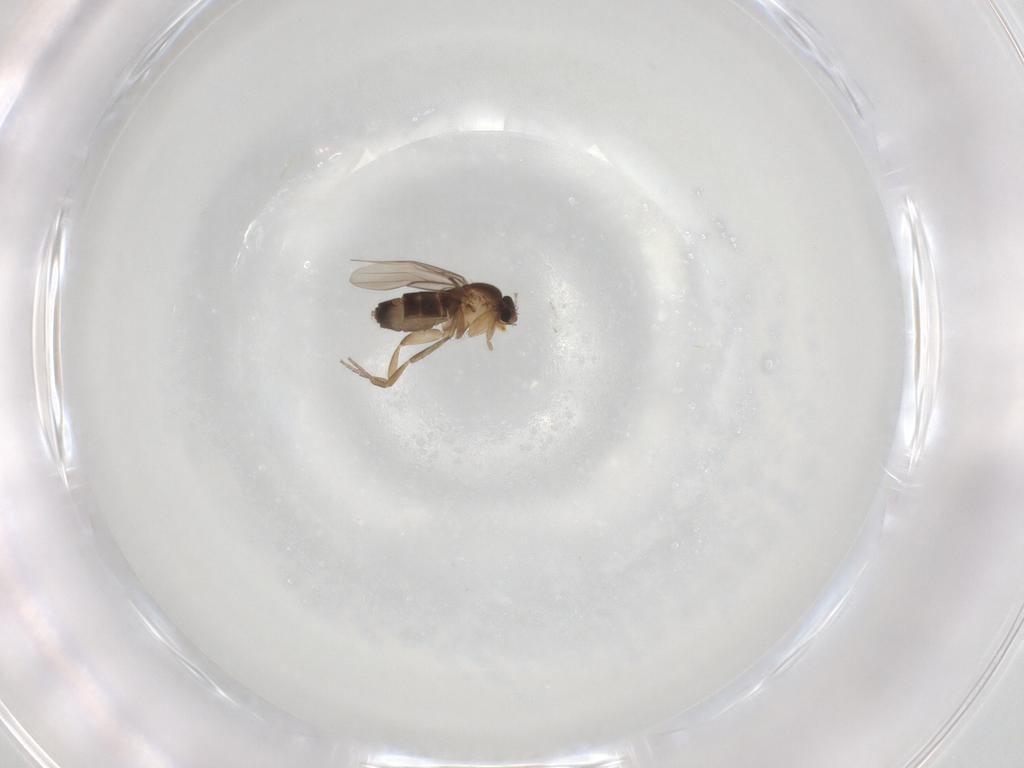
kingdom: Animalia
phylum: Arthropoda
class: Insecta
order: Diptera
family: Phoridae
